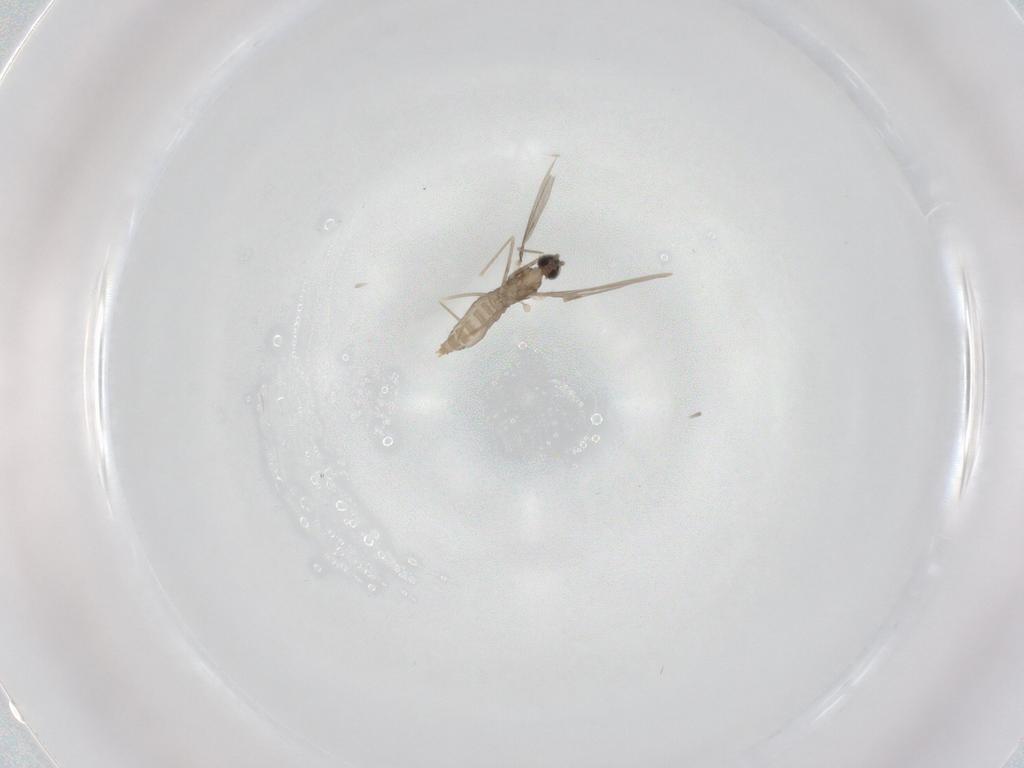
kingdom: Animalia
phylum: Arthropoda
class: Insecta
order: Diptera
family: Cecidomyiidae
